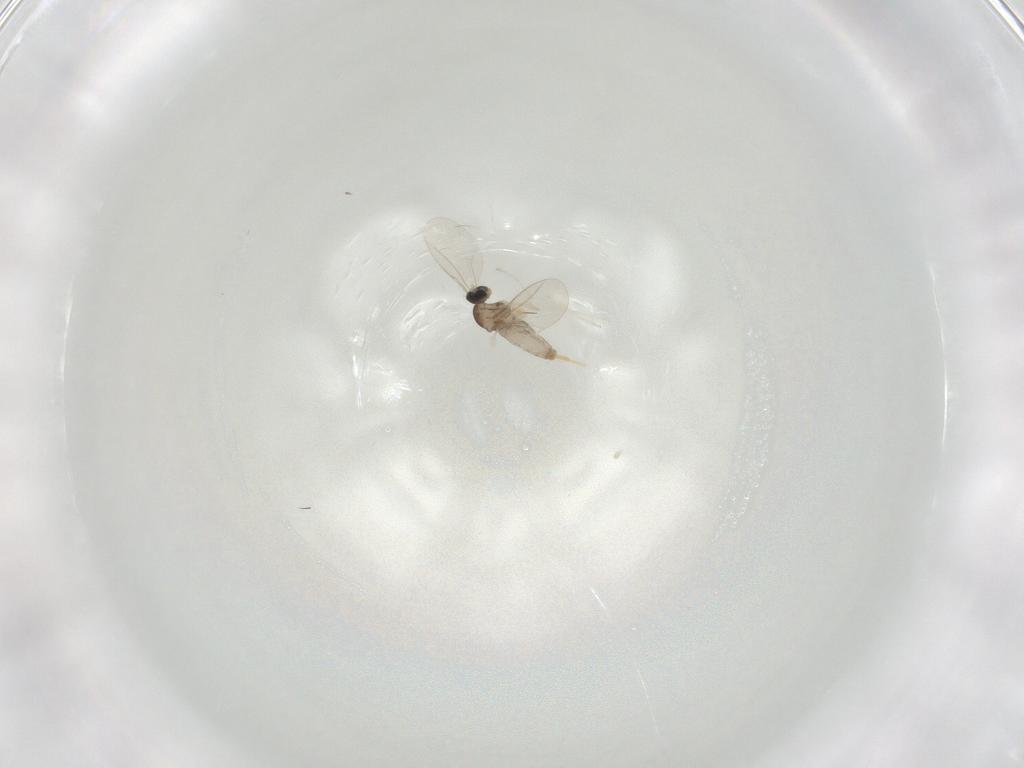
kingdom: Animalia
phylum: Arthropoda
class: Insecta
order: Diptera
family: Cecidomyiidae
